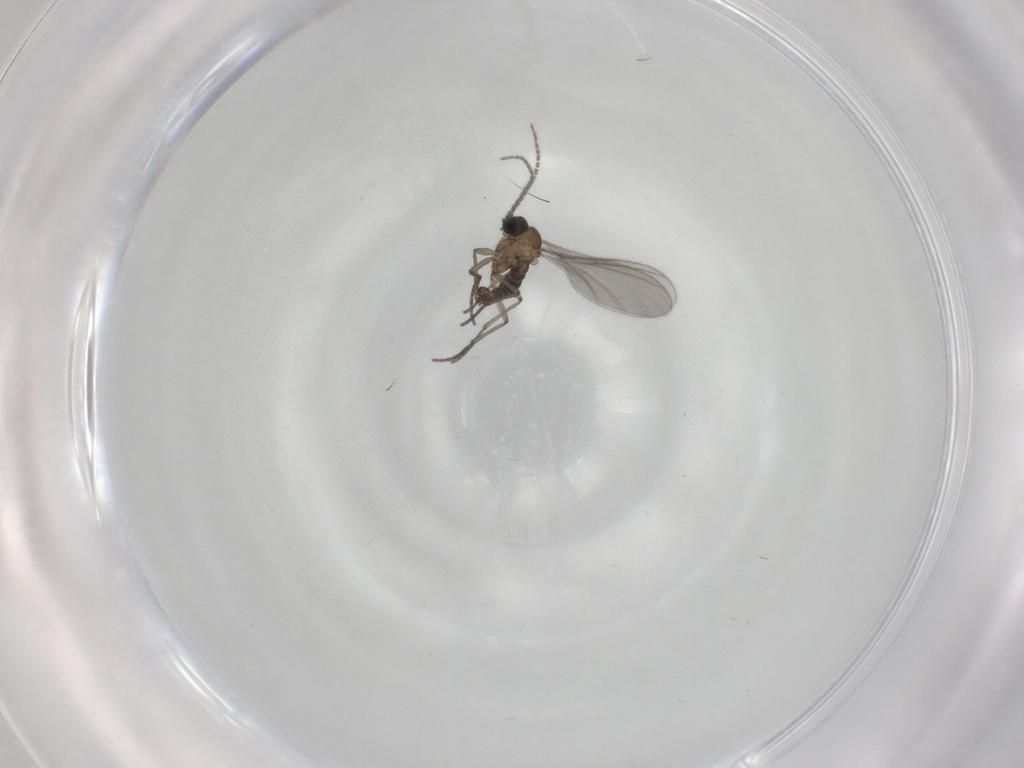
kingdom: Animalia
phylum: Arthropoda
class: Insecta
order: Diptera
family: Sciaridae
